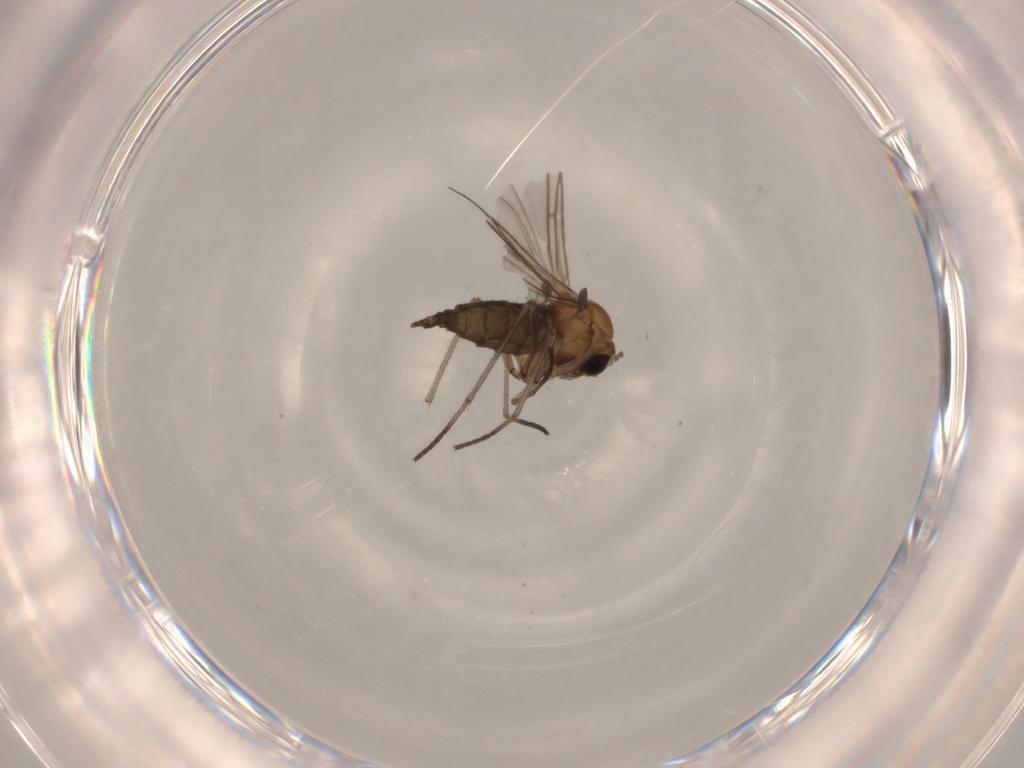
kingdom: Animalia
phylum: Arthropoda
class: Insecta
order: Diptera
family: Sciaridae
